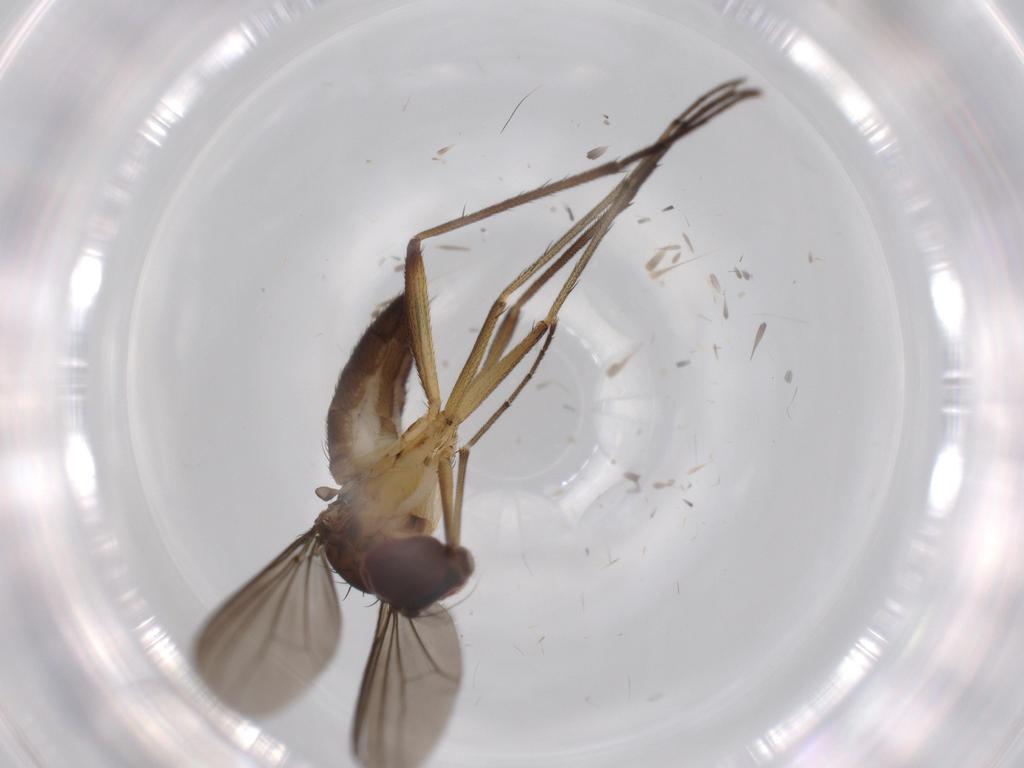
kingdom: Animalia
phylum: Arthropoda
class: Insecta
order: Diptera
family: Dolichopodidae
